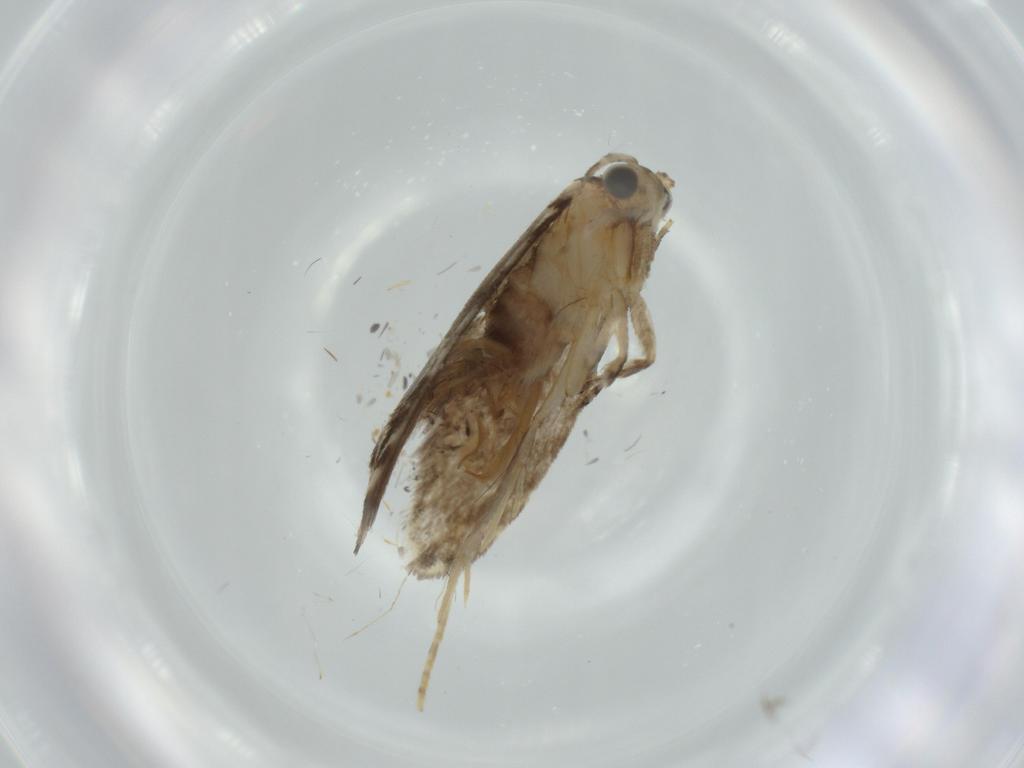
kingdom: Animalia
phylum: Arthropoda
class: Insecta
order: Lepidoptera
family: Tineidae
